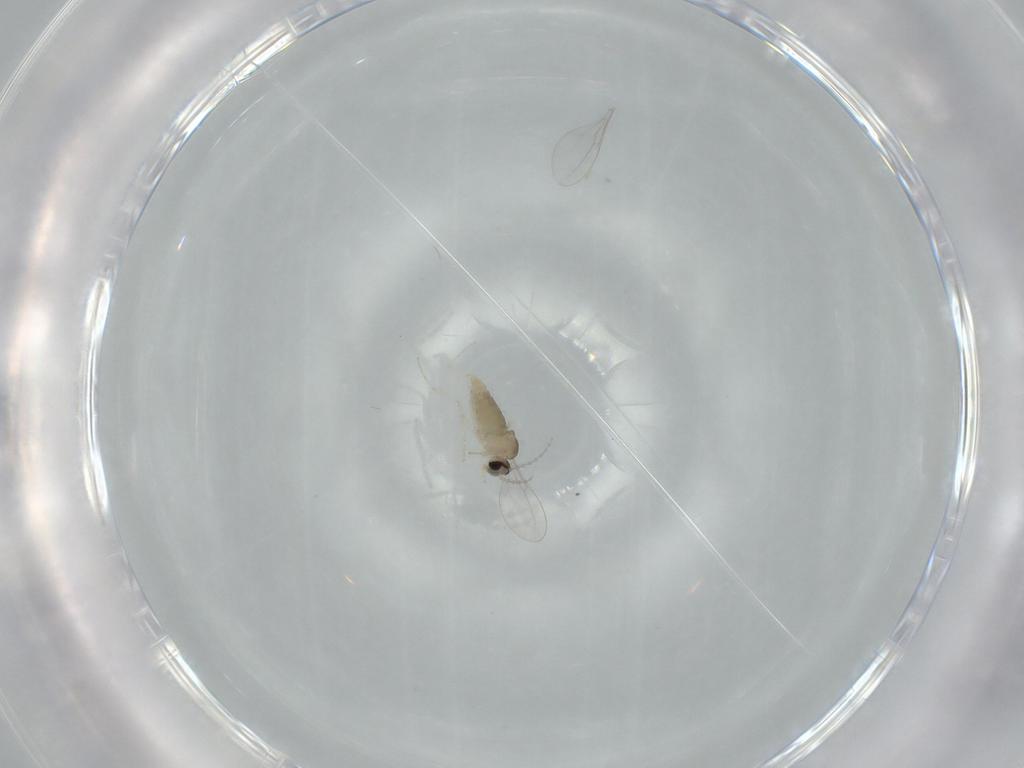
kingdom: Animalia
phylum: Arthropoda
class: Insecta
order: Diptera
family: Cecidomyiidae
